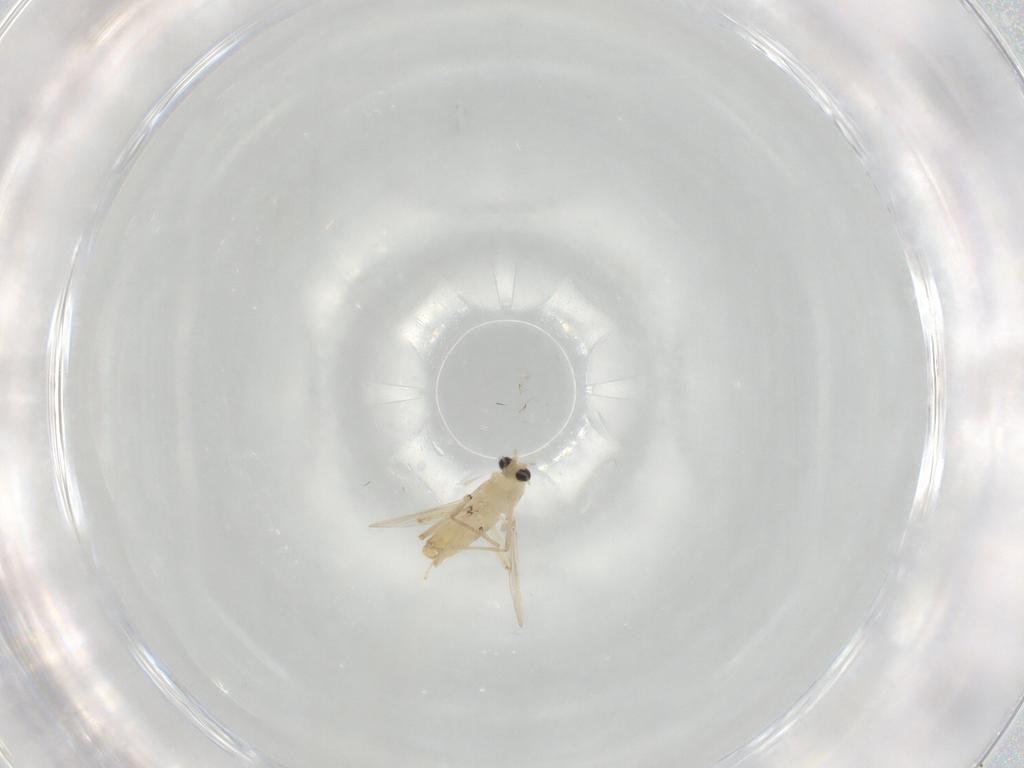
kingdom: Animalia
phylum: Arthropoda
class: Insecta
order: Diptera
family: Chironomidae
